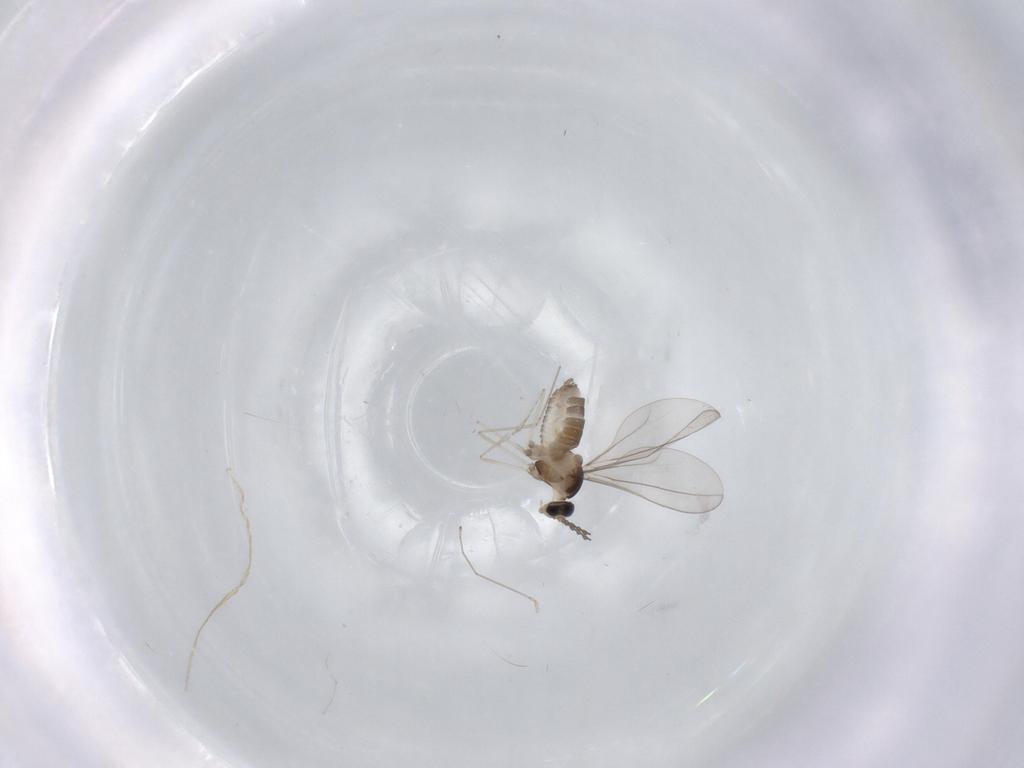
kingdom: Animalia
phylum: Arthropoda
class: Insecta
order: Diptera
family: Cecidomyiidae
